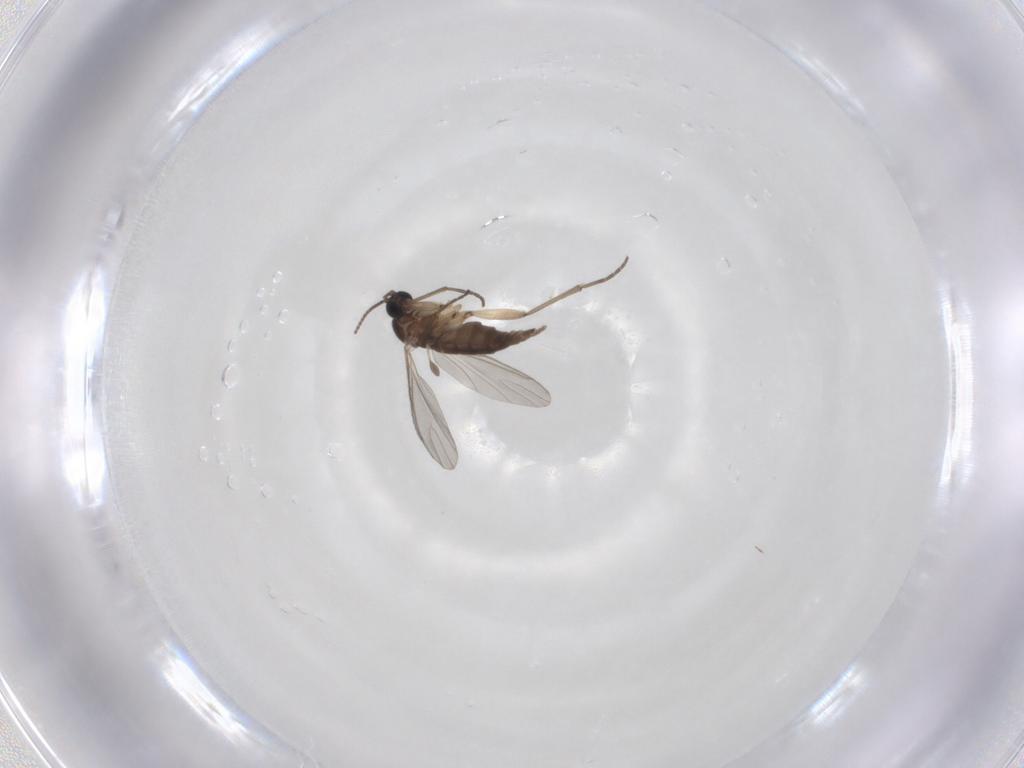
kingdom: Animalia
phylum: Arthropoda
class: Insecta
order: Diptera
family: Sciaridae
